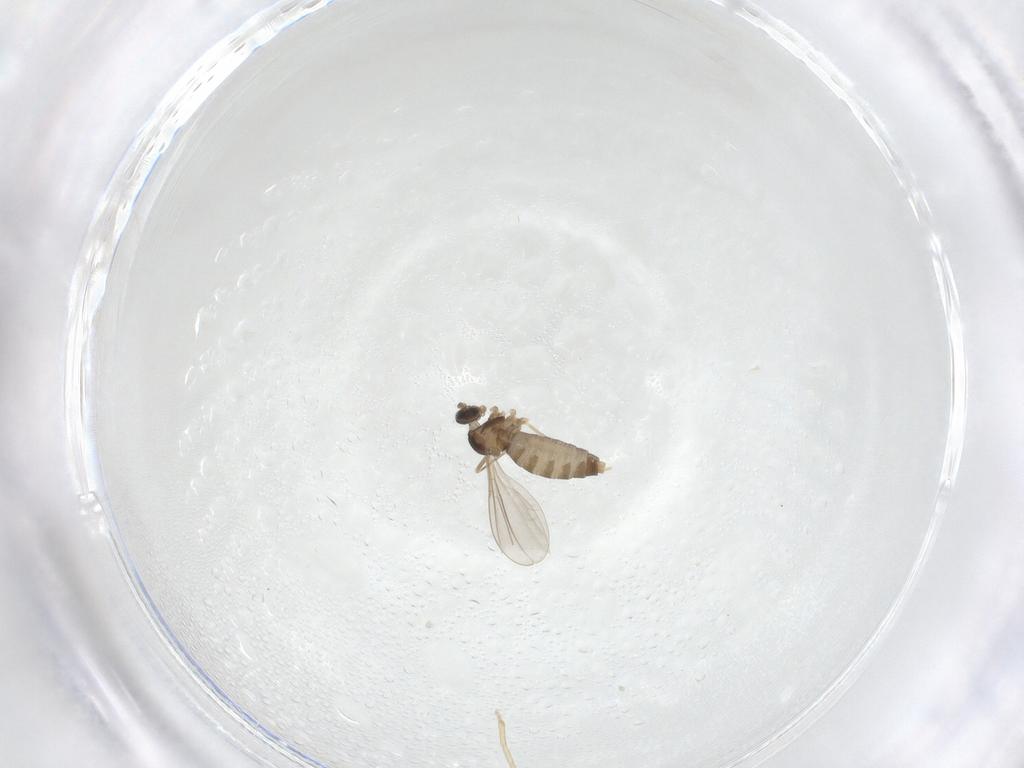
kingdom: Animalia
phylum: Arthropoda
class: Insecta
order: Diptera
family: Cecidomyiidae
